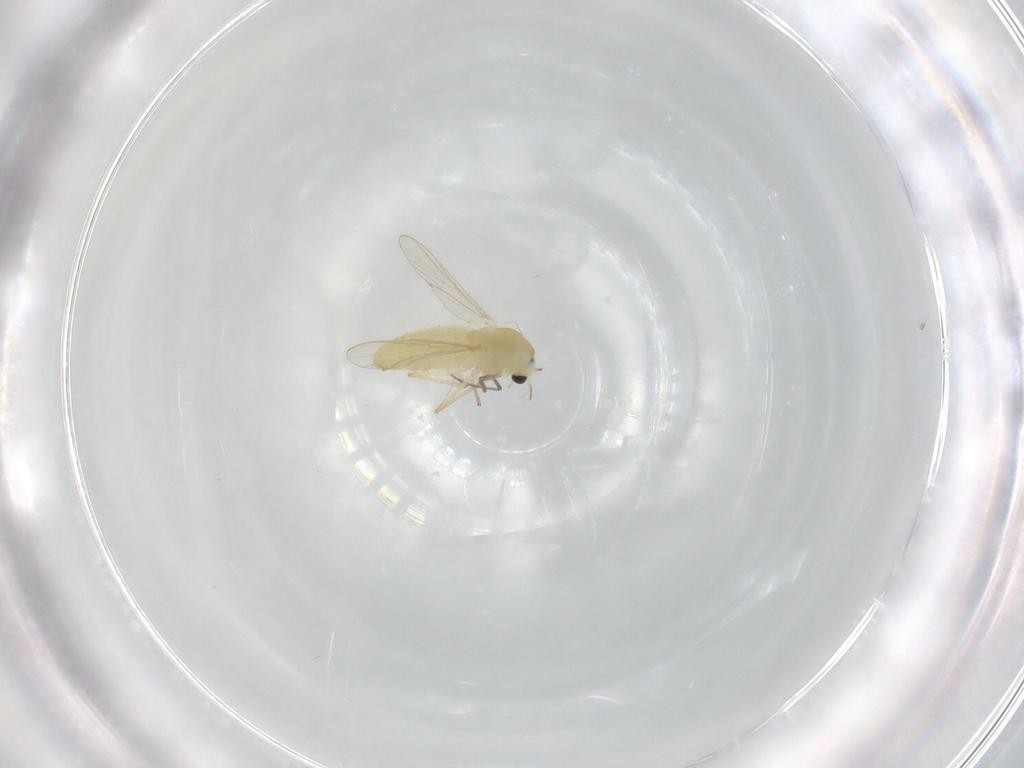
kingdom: Animalia
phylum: Arthropoda
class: Insecta
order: Diptera
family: Chironomidae
